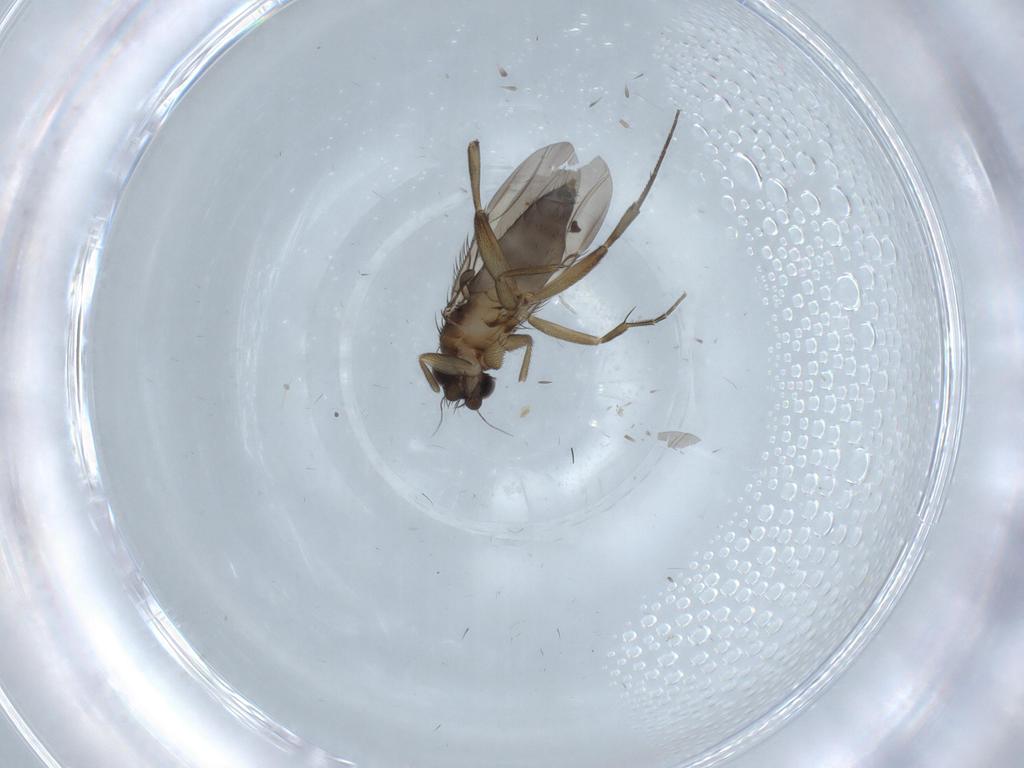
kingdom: Animalia
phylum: Arthropoda
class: Insecta
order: Diptera
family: Phoridae
